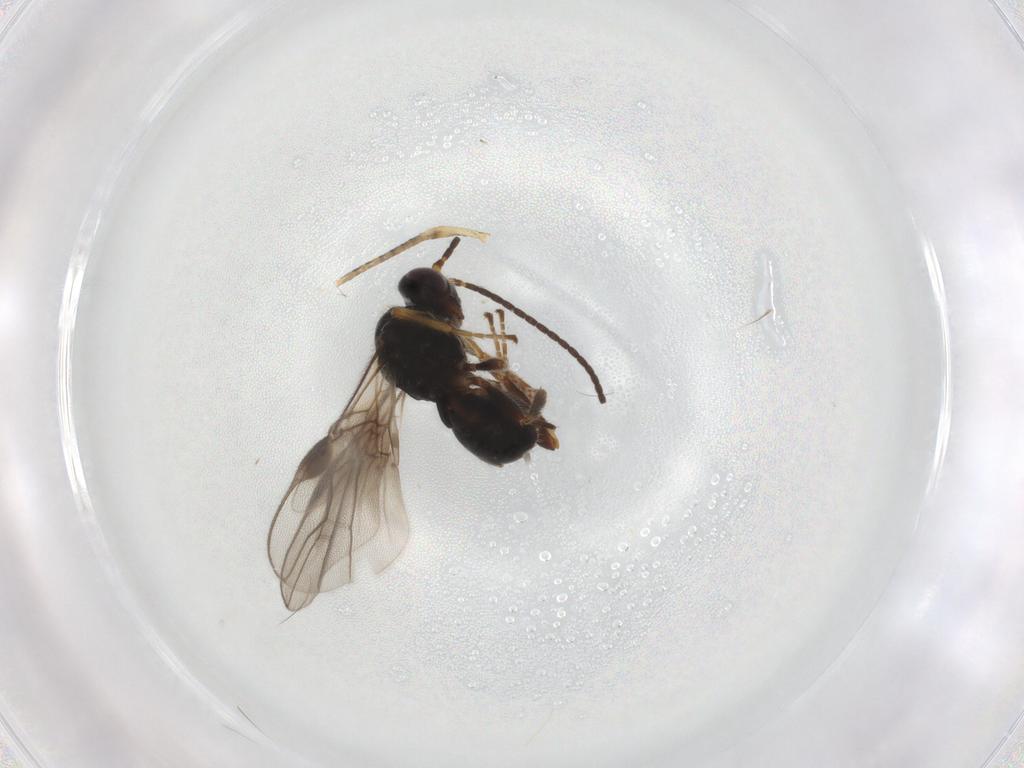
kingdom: Animalia
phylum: Arthropoda
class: Insecta
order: Hymenoptera
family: Braconidae
